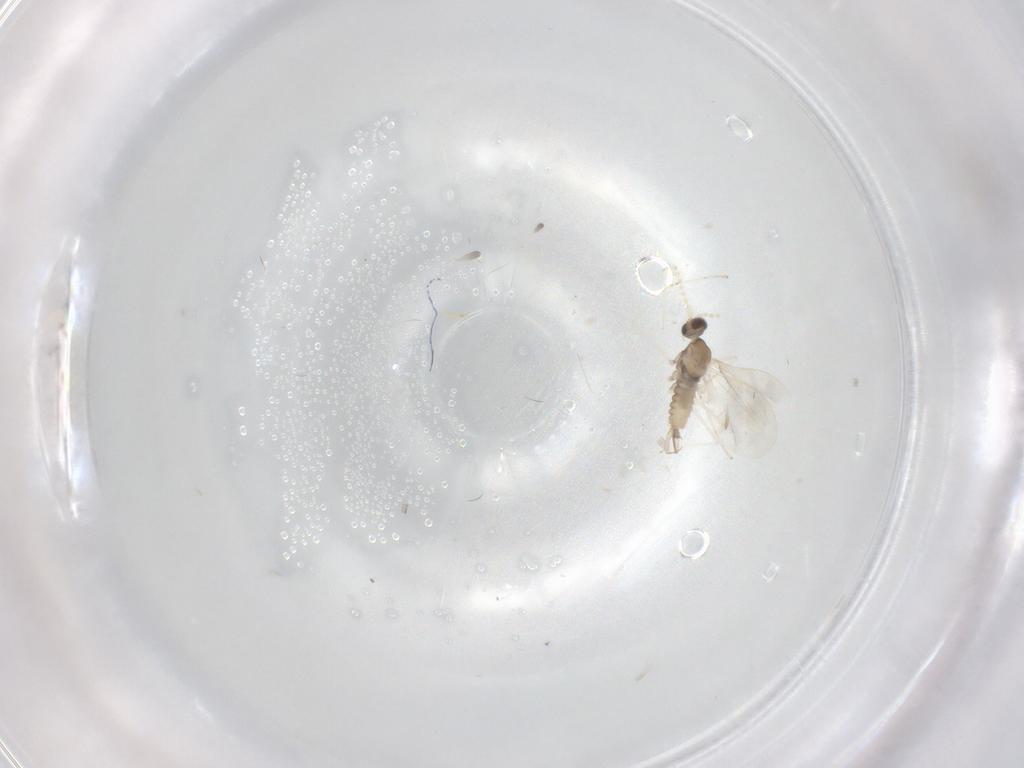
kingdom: Animalia
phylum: Arthropoda
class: Insecta
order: Diptera
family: Cecidomyiidae
